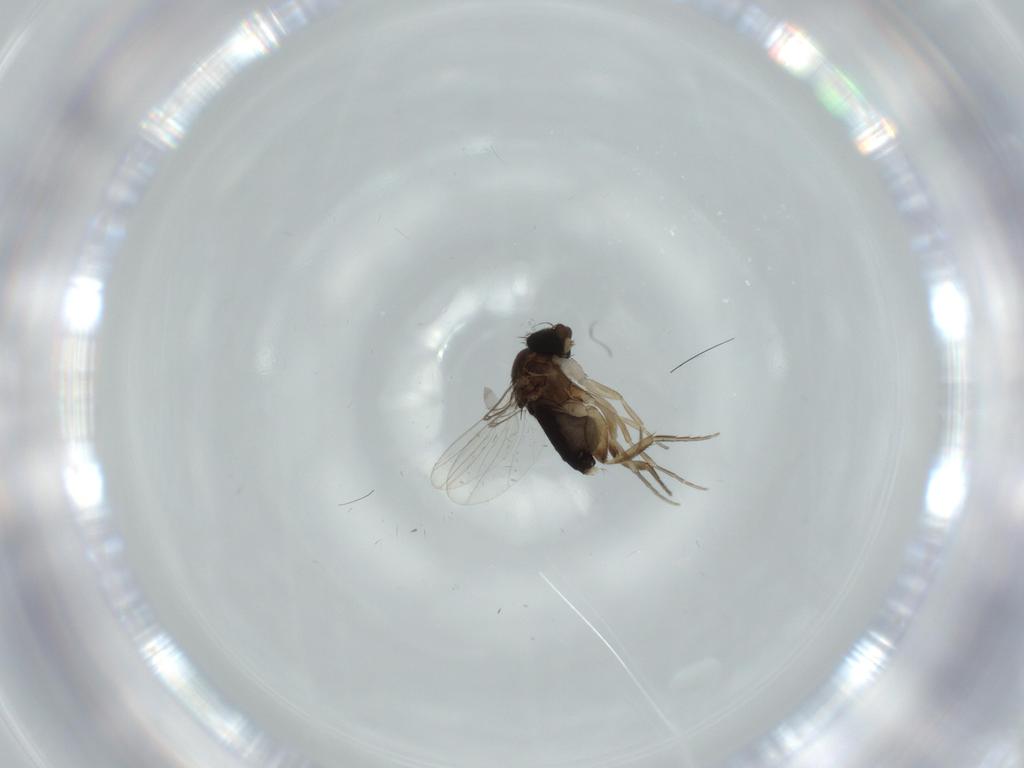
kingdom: Animalia
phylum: Arthropoda
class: Insecta
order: Diptera
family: Phoridae
